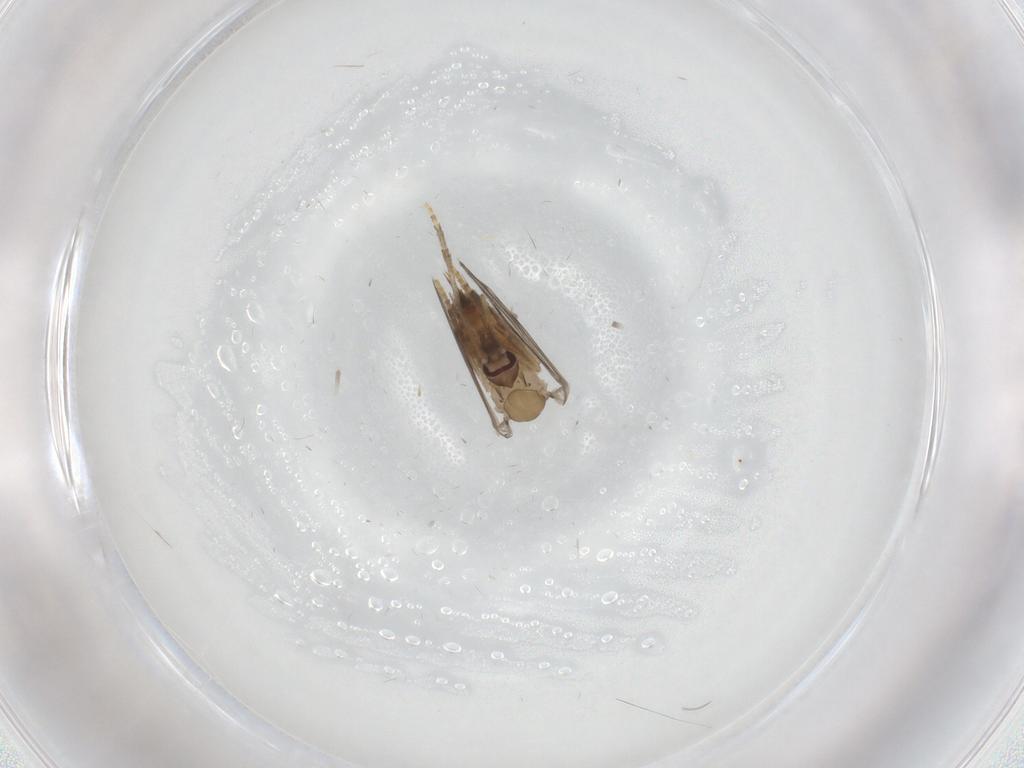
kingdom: Animalia
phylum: Arthropoda
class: Insecta
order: Diptera
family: Psychodidae
